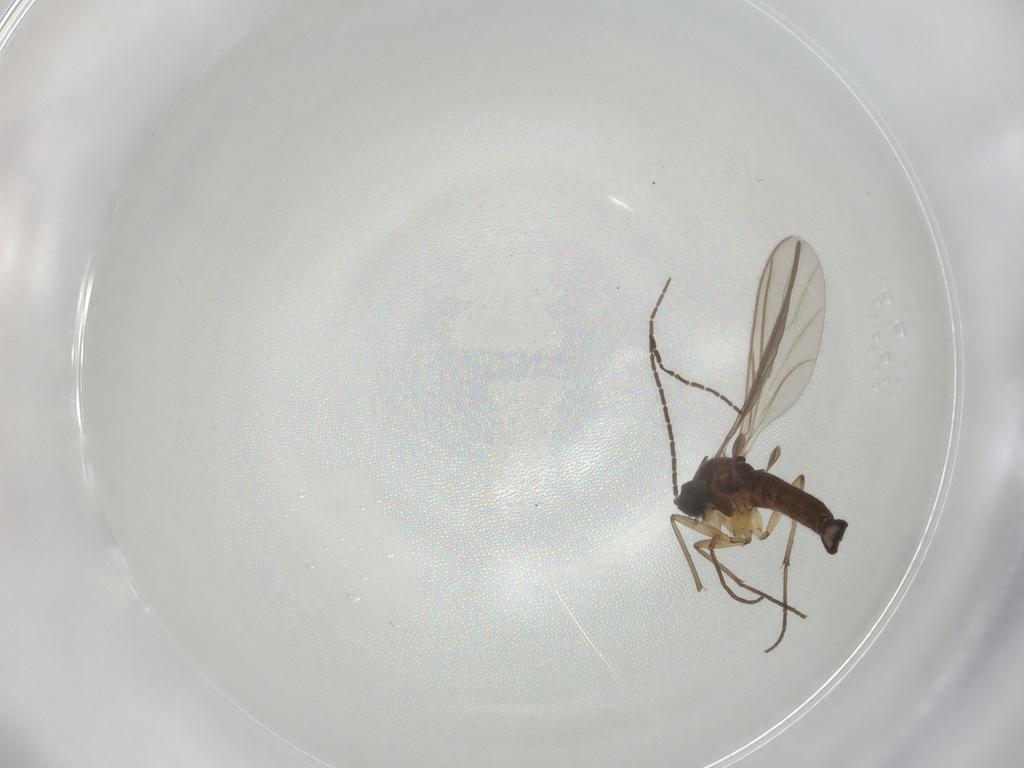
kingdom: Animalia
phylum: Arthropoda
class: Insecta
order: Diptera
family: Sciaridae
